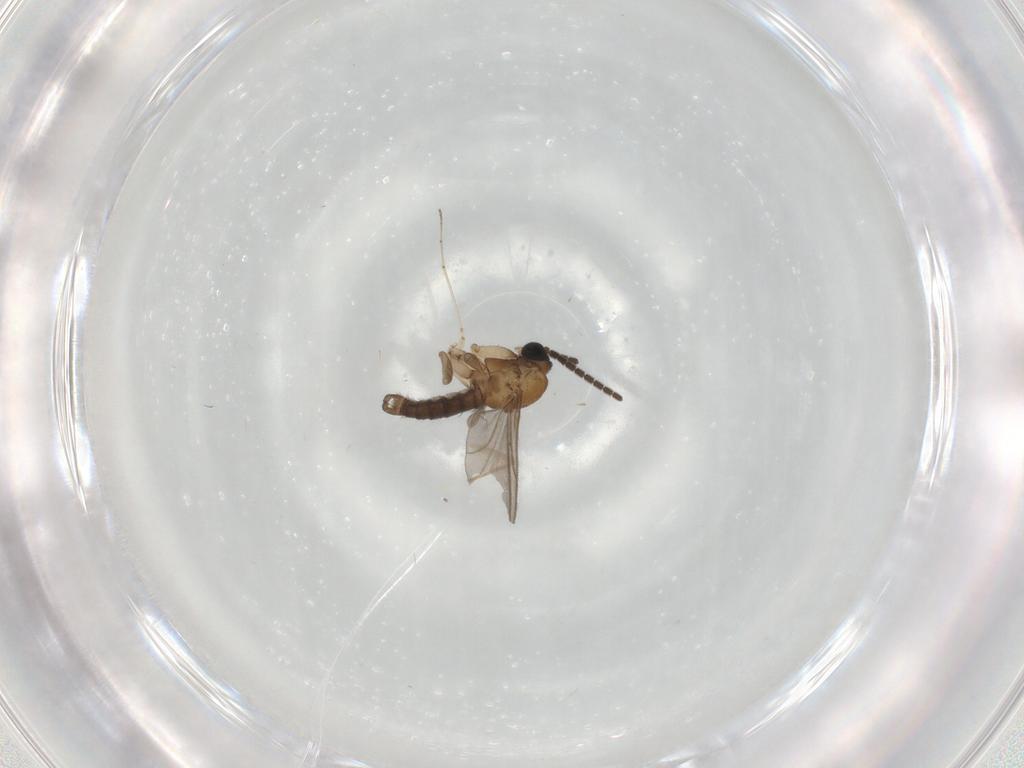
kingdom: Animalia
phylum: Arthropoda
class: Insecta
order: Diptera
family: Sciaridae
